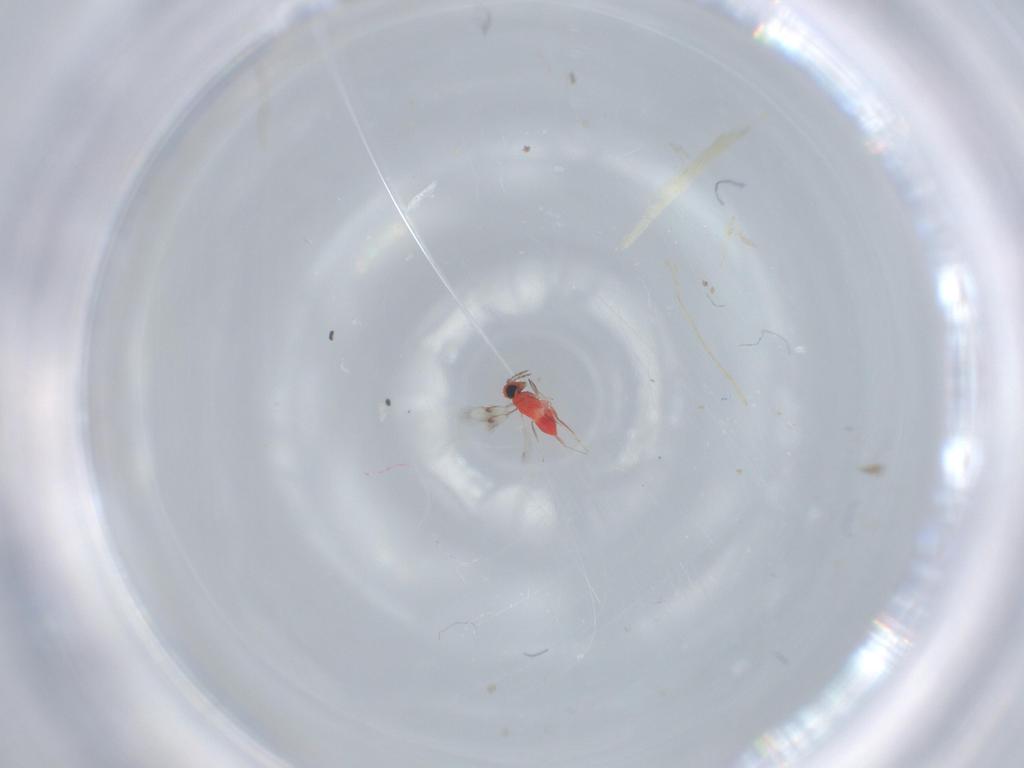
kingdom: Animalia
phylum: Arthropoda
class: Insecta
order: Hymenoptera
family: Trichogrammatidae
